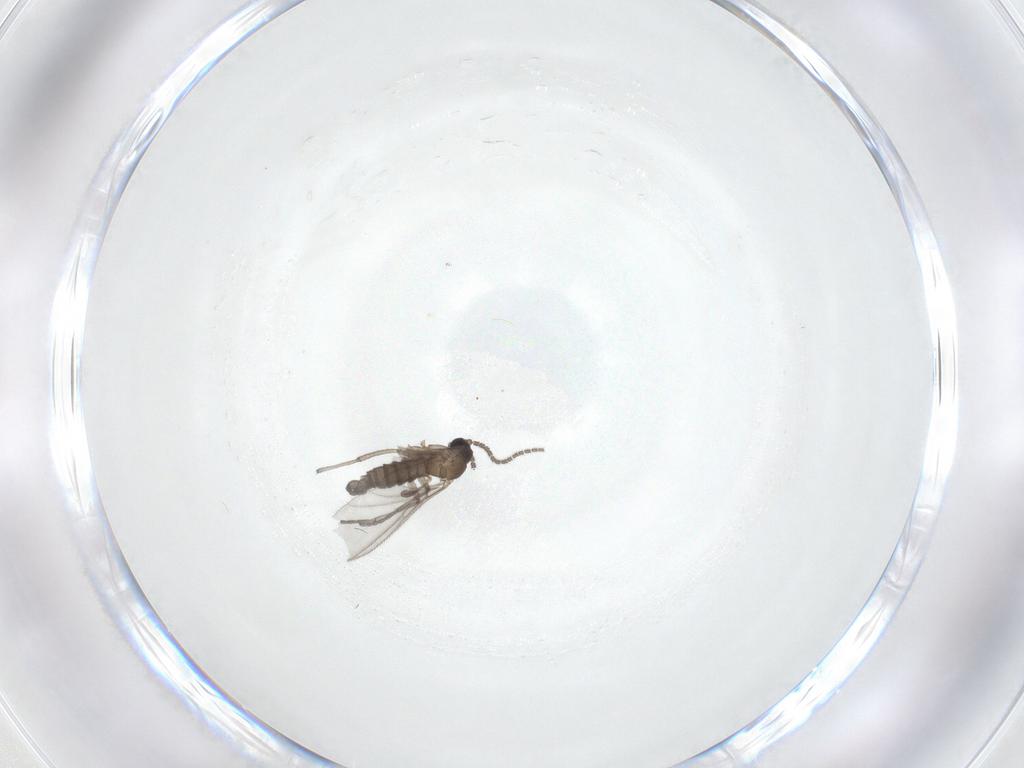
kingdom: Animalia
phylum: Arthropoda
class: Insecta
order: Diptera
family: Sciaridae
